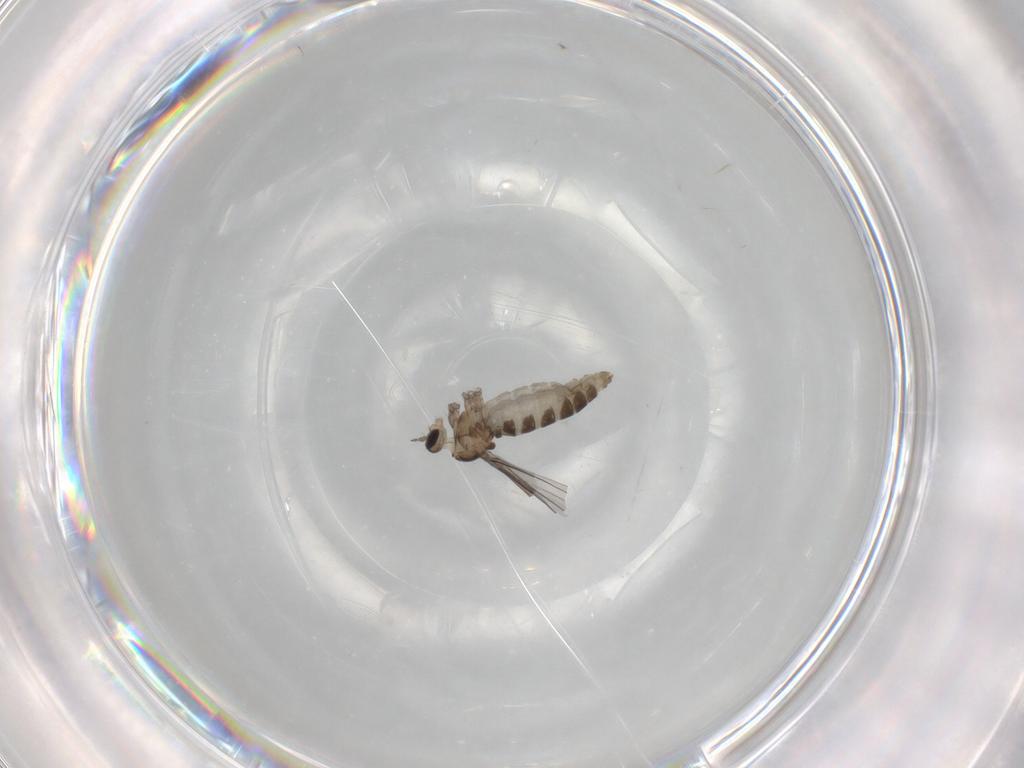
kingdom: Animalia
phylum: Arthropoda
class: Insecta
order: Diptera
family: Cecidomyiidae
